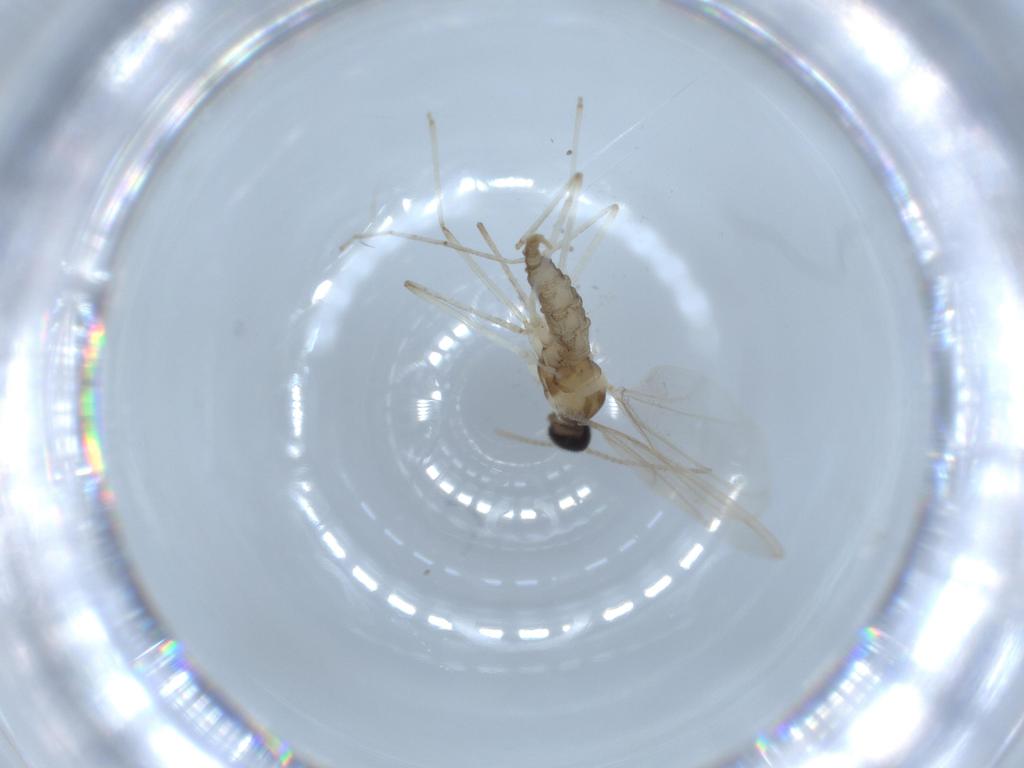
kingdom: Animalia
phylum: Arthropoda
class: Insecta
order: Diptera
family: Cecidomyiidae
